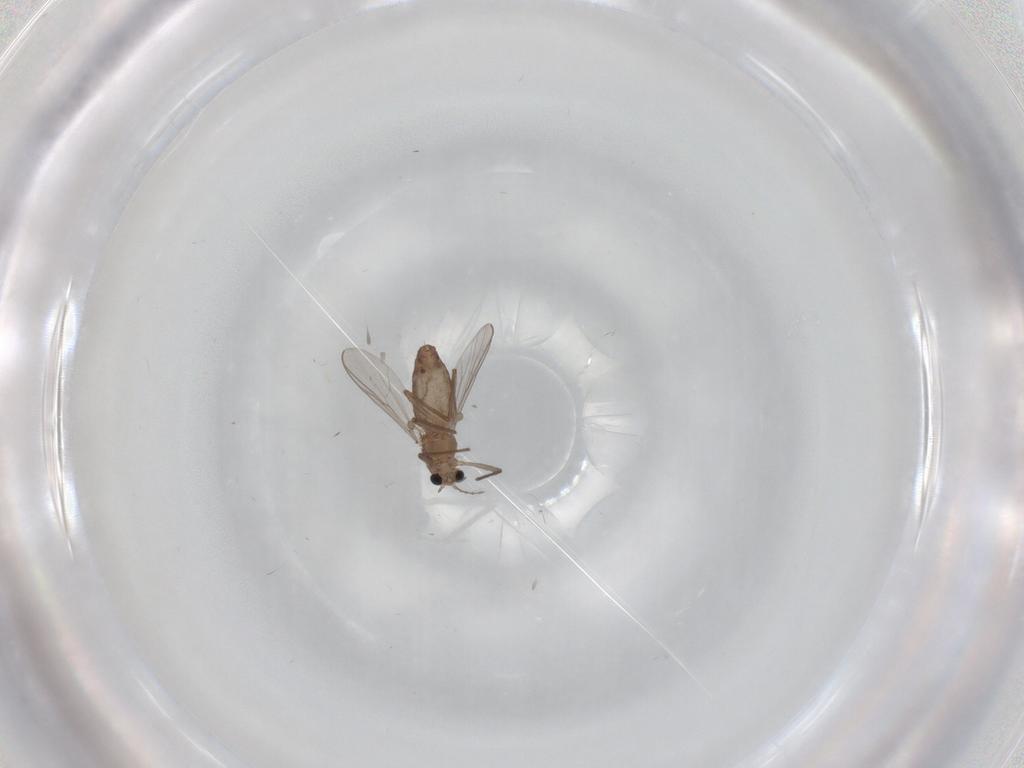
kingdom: Animalia
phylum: Arthropoda
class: Insecta
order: Diptera
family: Chironomidae
